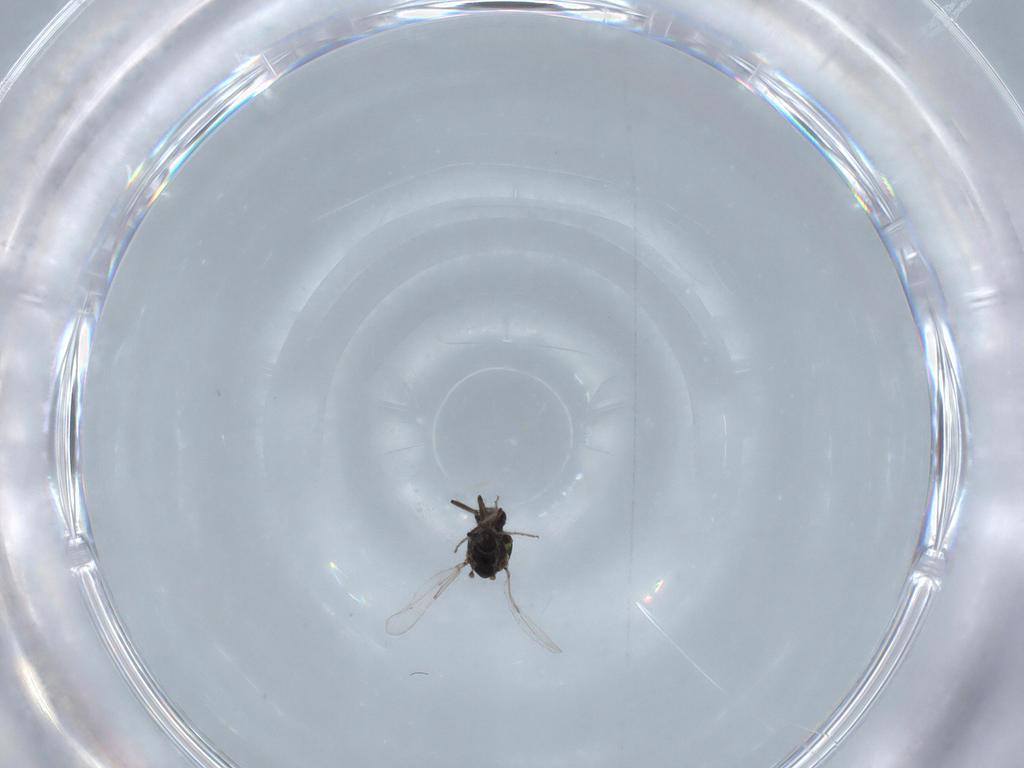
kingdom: Animalia
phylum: Arthropoda
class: Insecta
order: Diptera
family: Ceratopogonidae
